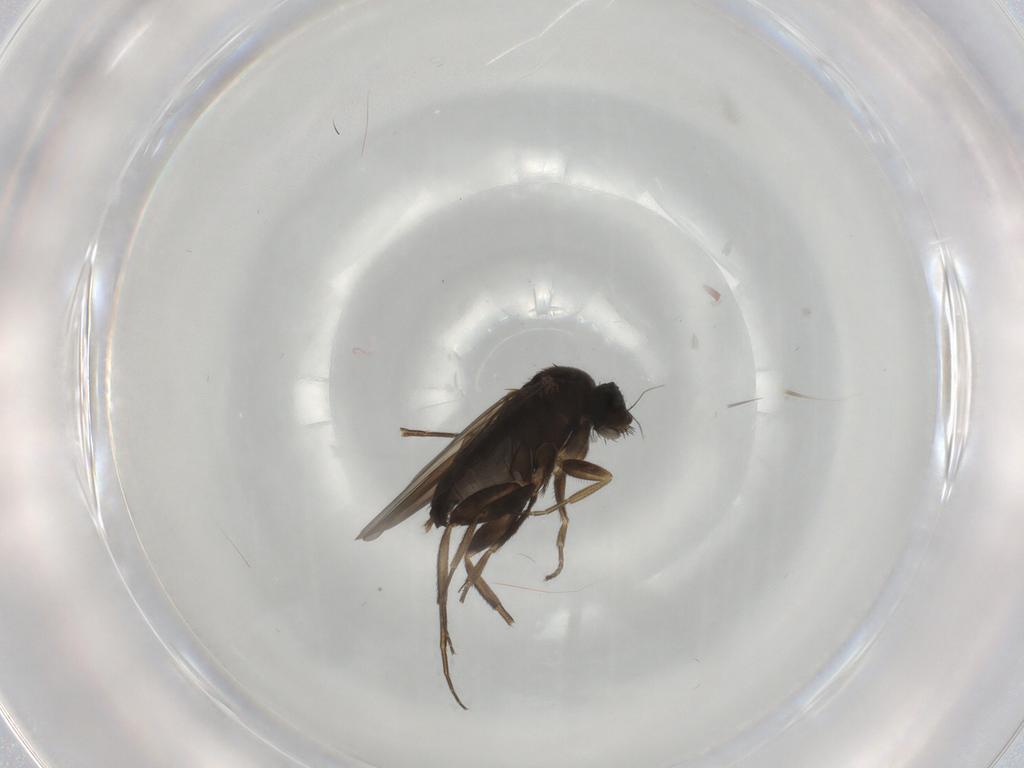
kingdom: Animalia
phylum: Arthropoda
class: Insecta
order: Diptera
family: Phoridae
